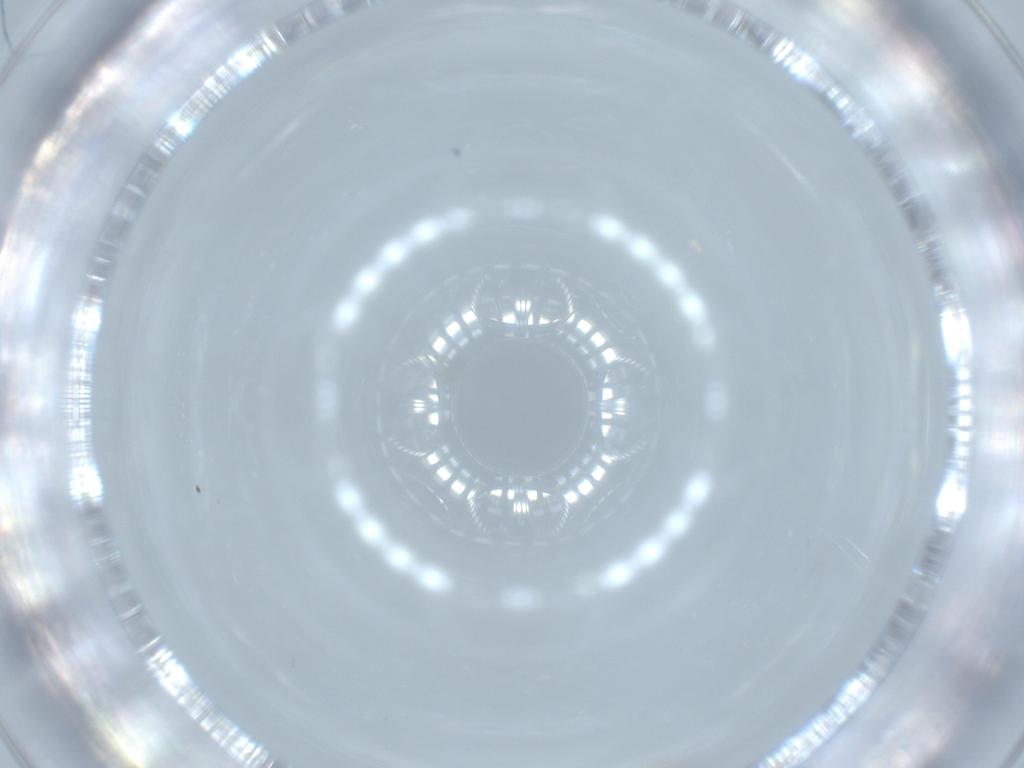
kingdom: Animalia
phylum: Arthropoda
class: Insecta
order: Hemiptera
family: Tropiduchidae
